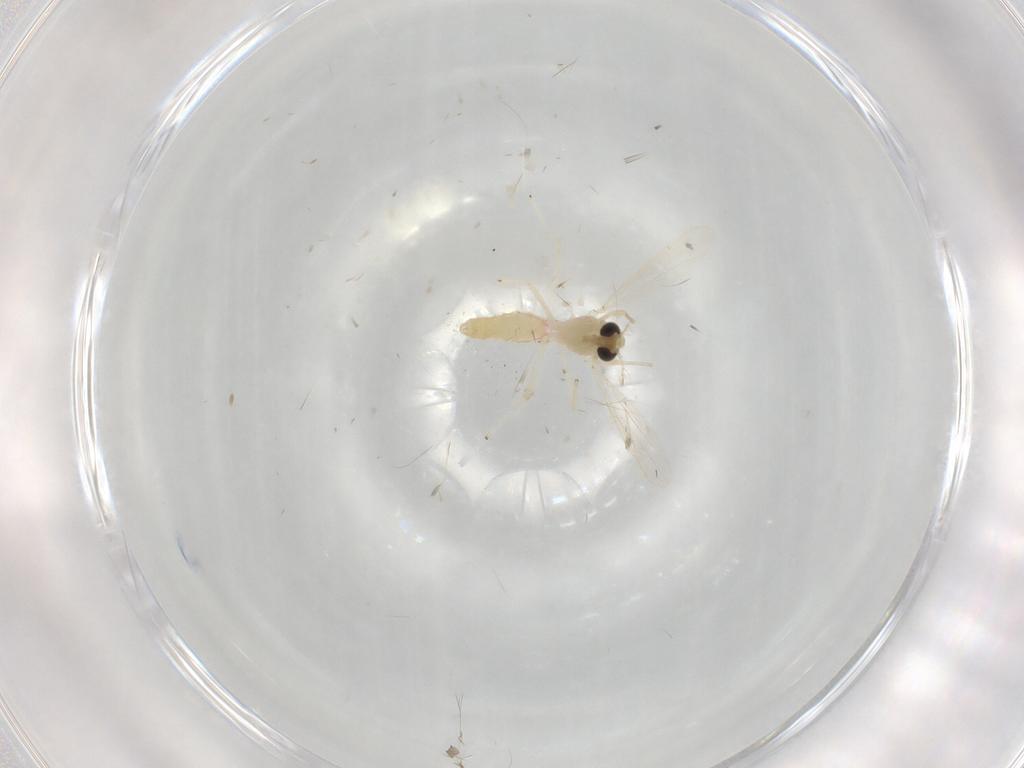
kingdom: Animalia
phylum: Arthropoda
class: Insecta
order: Diptera
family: Chironomidae
